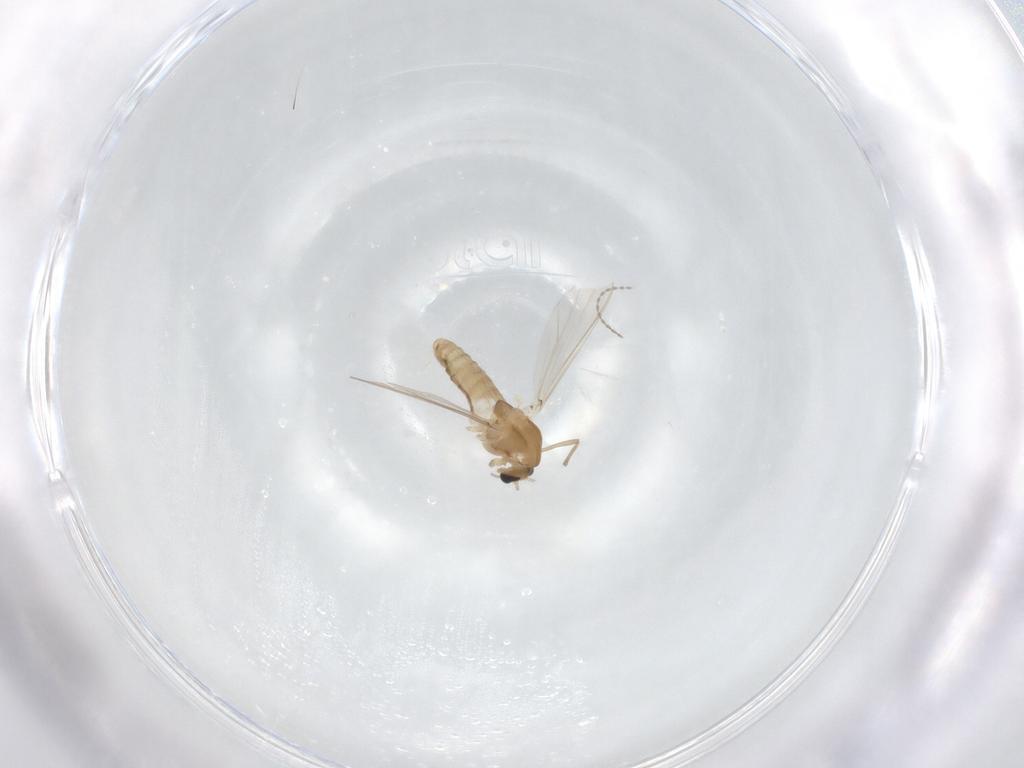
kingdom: Animalia
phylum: Arthropoda
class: Insecta
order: Diptera
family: Chironomidae
